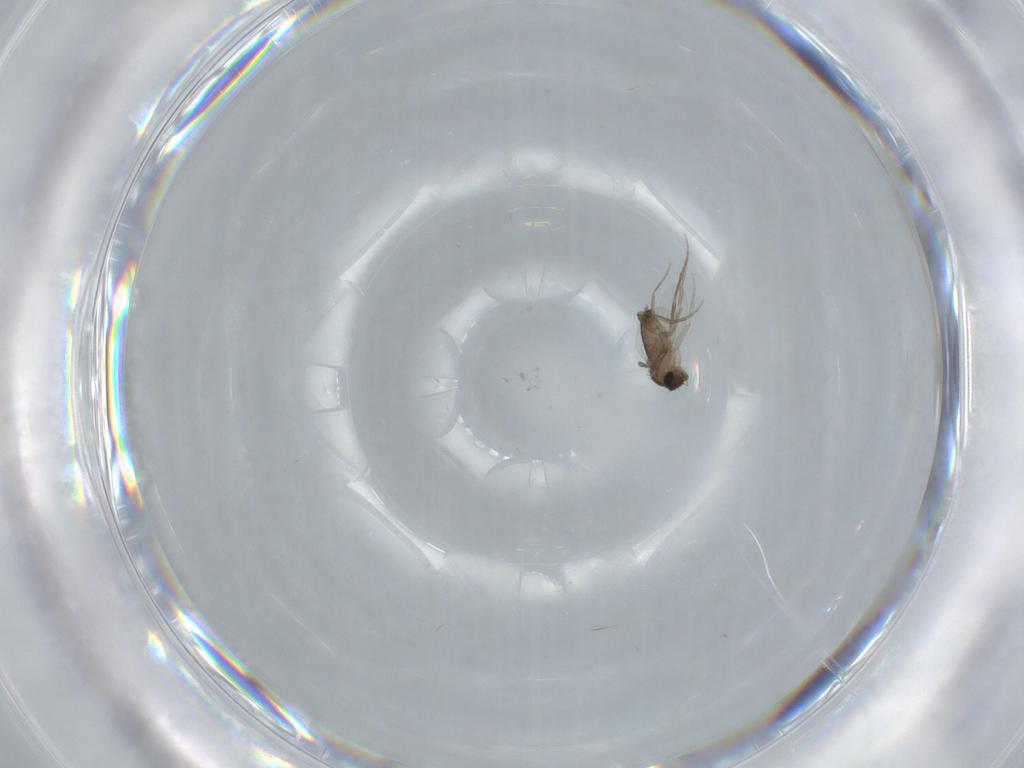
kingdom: Animalia
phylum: Arthropoda
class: Insecta
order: Diptera
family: Phoridae
